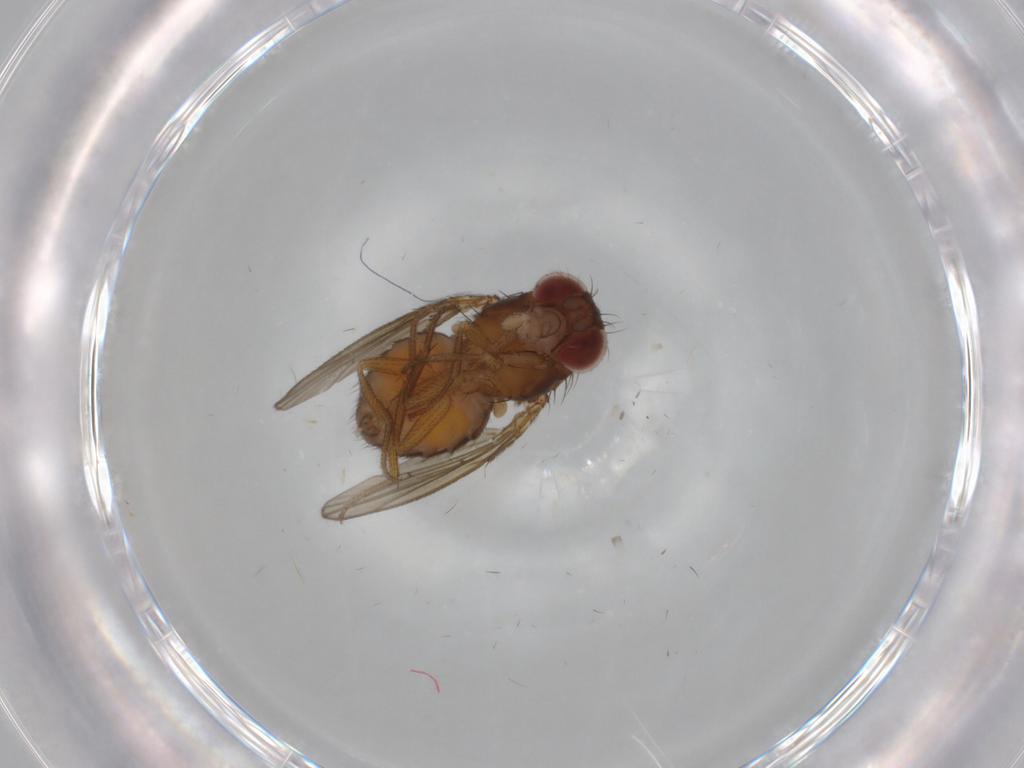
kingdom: Animalia
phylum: Arthropoda
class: Insecta
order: Diptera
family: Drosophilidae
